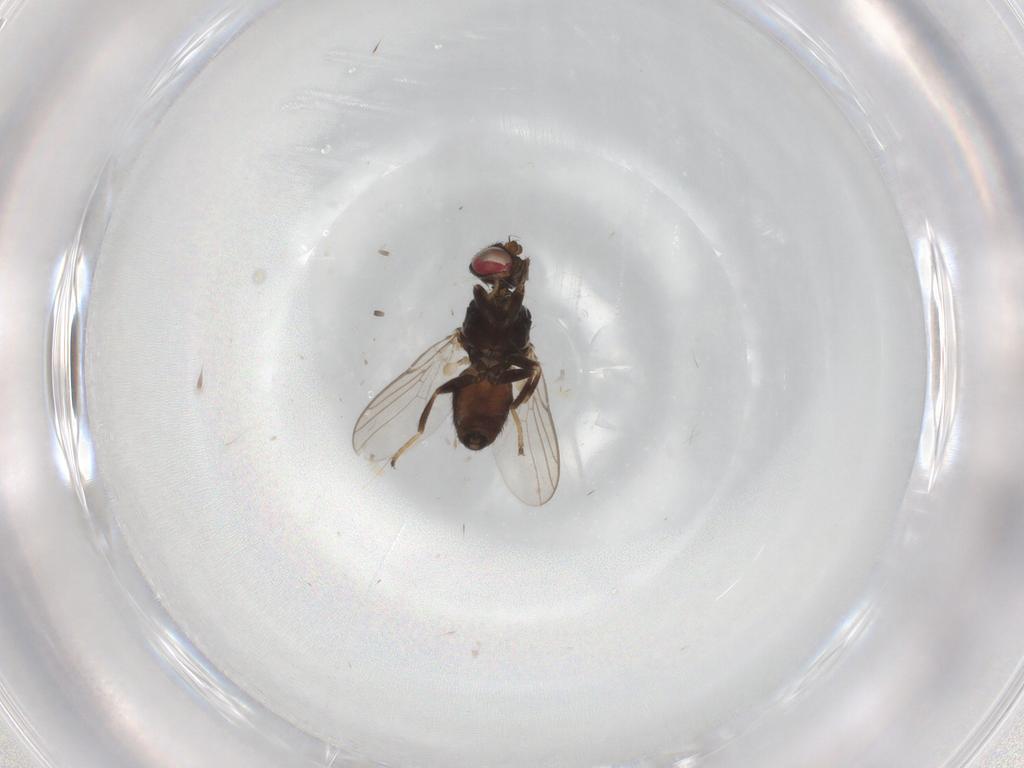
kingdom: Animalia
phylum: Arthropoda
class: Insecta
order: Diptera
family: Chloropidae
